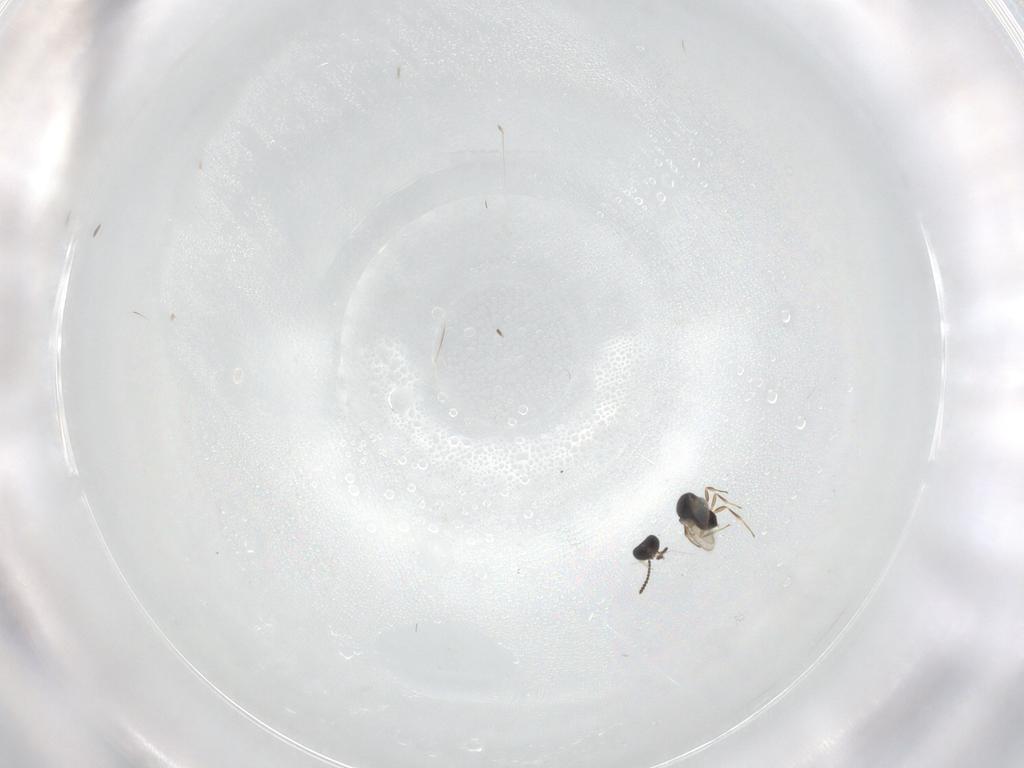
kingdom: Animalia
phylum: Arthropoda
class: Insecta
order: Hymenoptera
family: Scelionidae
